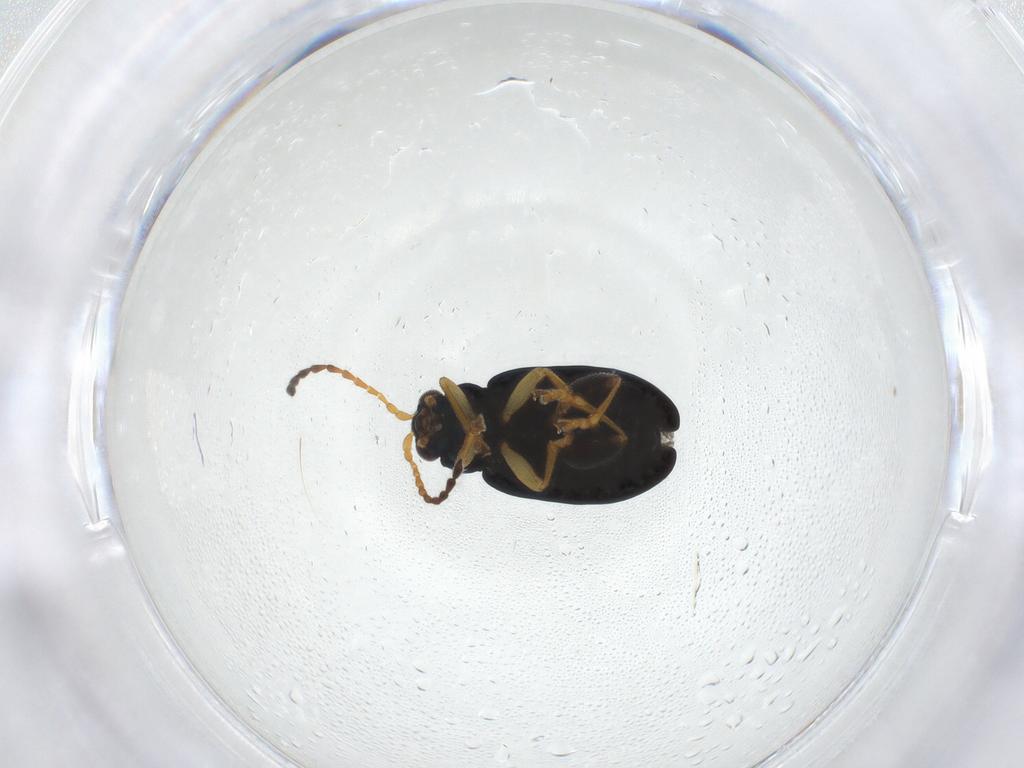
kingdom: Animalia
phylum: Arthropoda
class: Insecta
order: Coleoptera
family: Chrysomelidae
